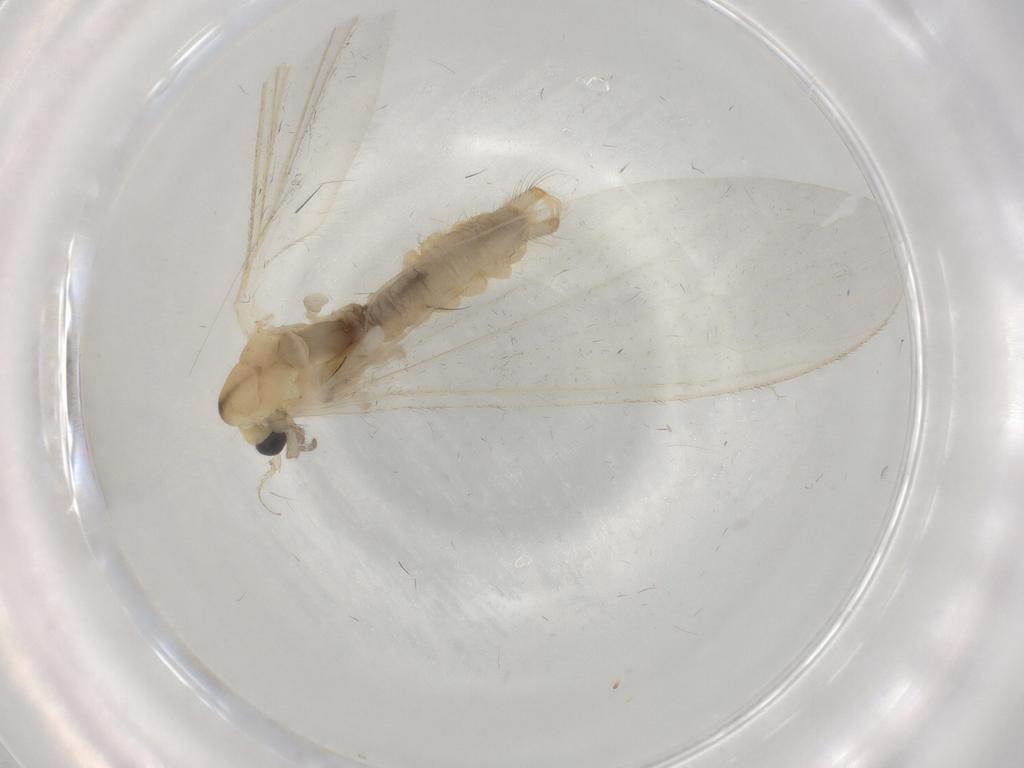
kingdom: Animalia
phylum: Arthropoda
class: Insecta
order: Diptera
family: Limoniidae
